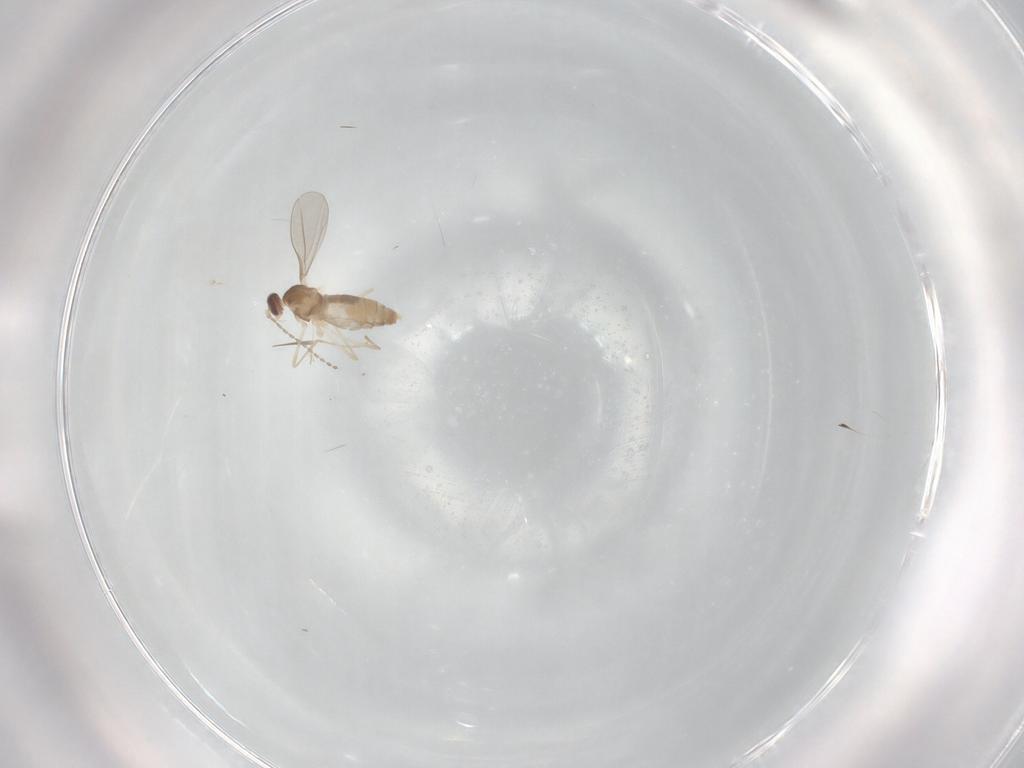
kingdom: Animalia
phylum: Arthropoda
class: Insecta
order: Diptera
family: Cecidomyiidae
